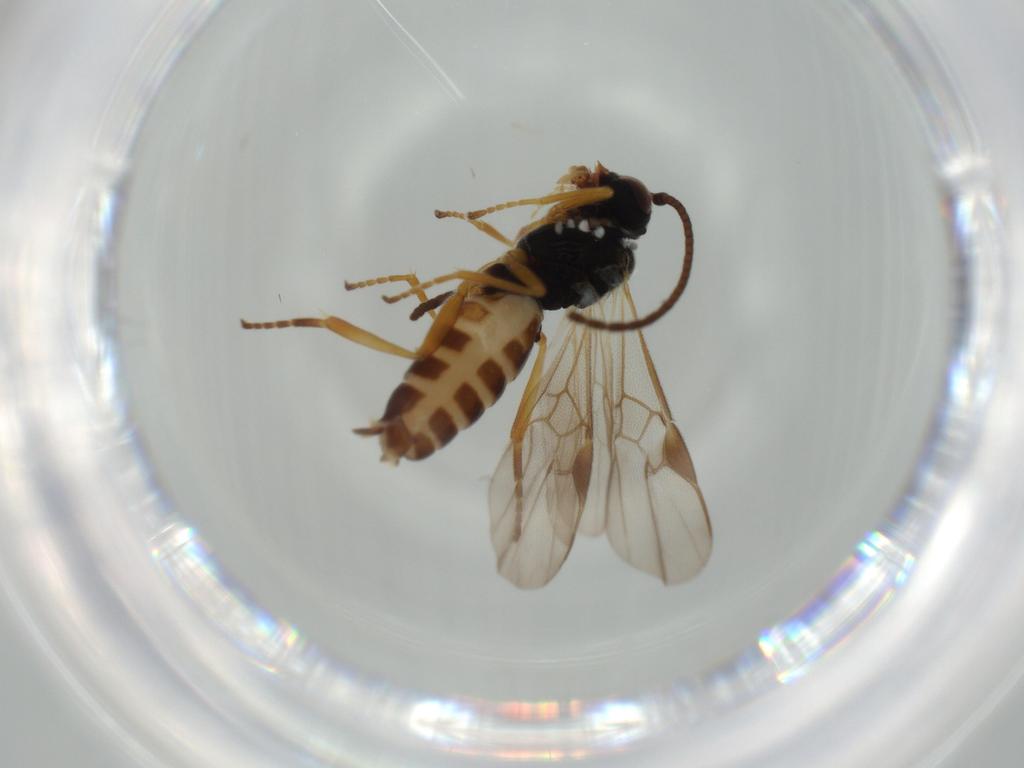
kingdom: Animalia
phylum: Arthropoda
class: Insecta
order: Hymenoptera
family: Braconidae
